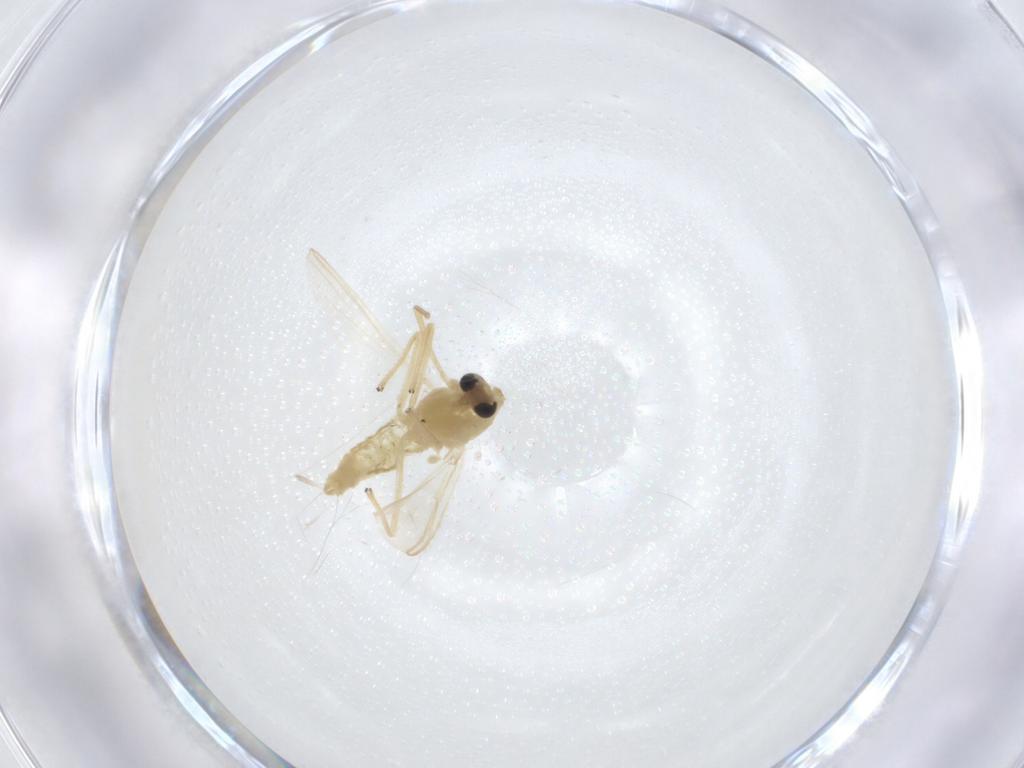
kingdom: Animalia
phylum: Arthropoda
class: Insecta
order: Diptera
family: Chironomidae
